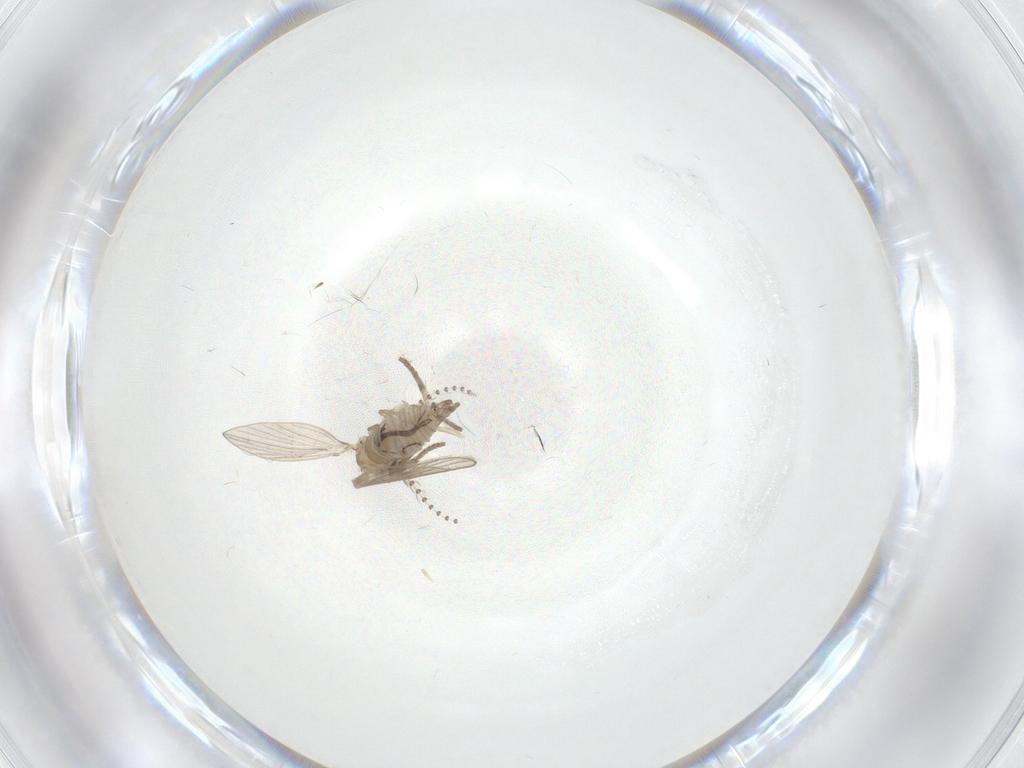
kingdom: Animalia
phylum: Arthropoda
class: Insecta
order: Diptera
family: Psychodidae
